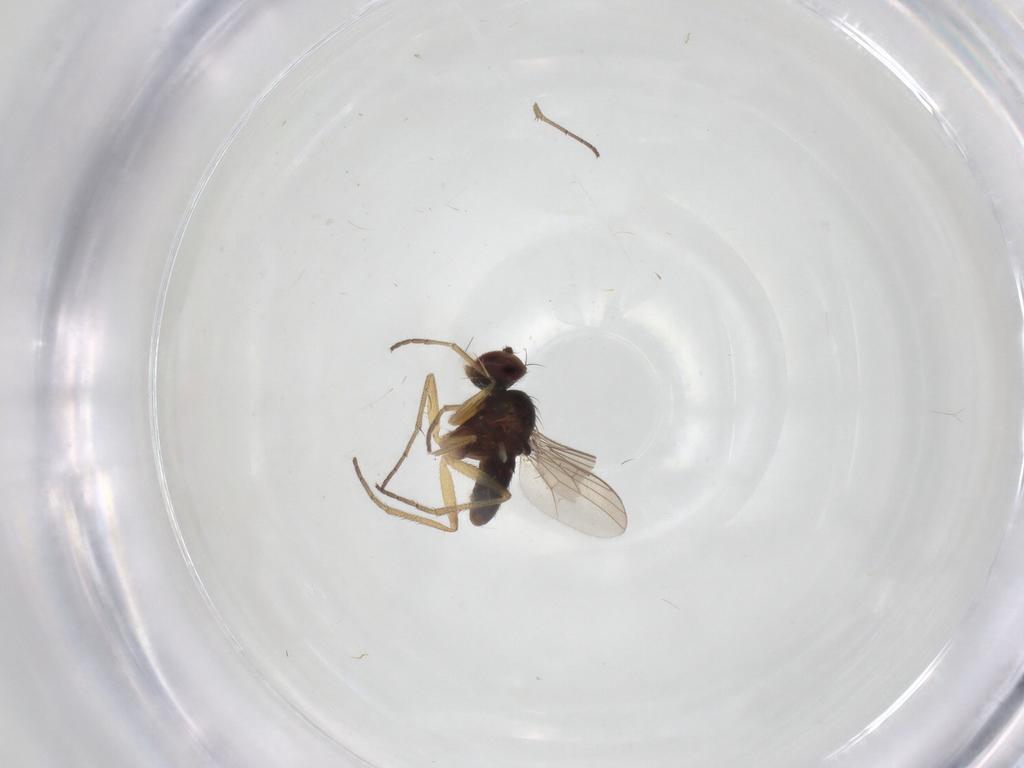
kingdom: Animalia
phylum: Arthropoda
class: Insecta
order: Diptera
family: Dolichopodidae
